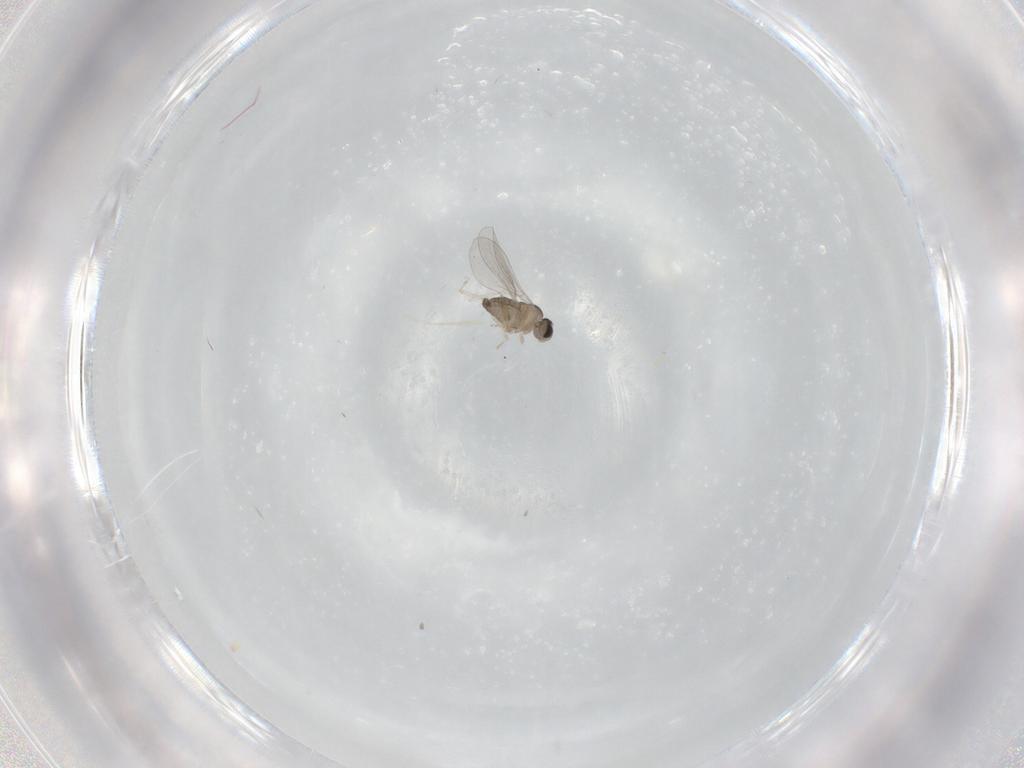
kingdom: Animalia
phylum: Arthropoda
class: Insecta
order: Diptera
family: Cecidomyiidae
